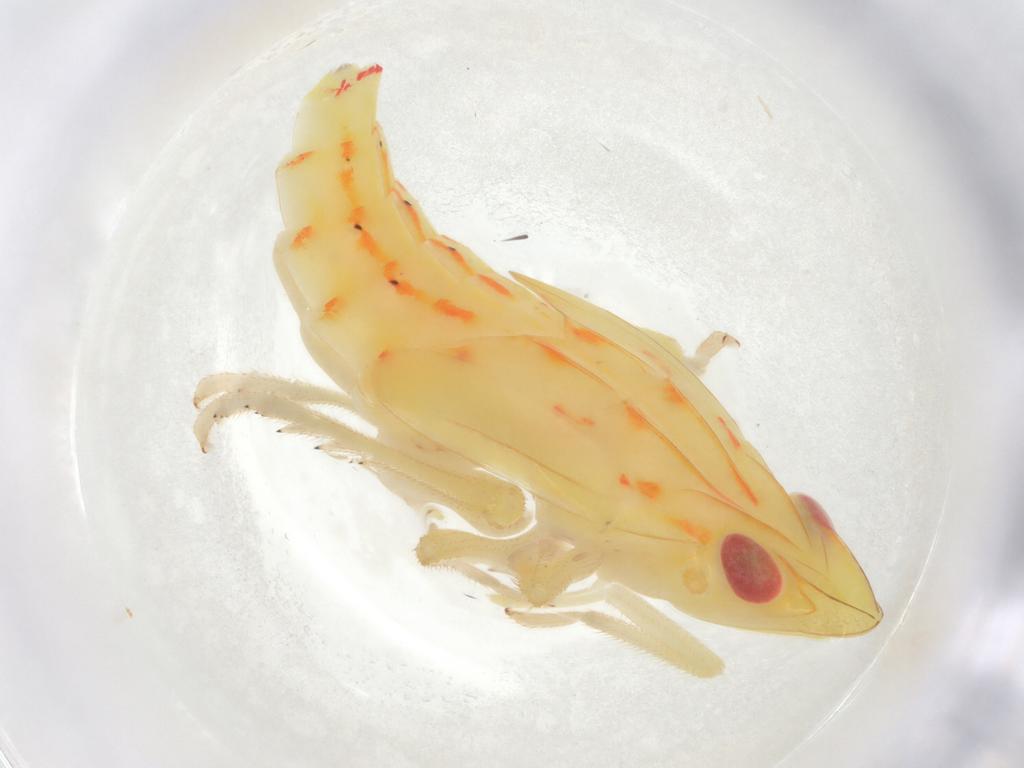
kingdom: Animalia
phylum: Arthropoda
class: Insecta
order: Hemiptera
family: Tropiduchidae
